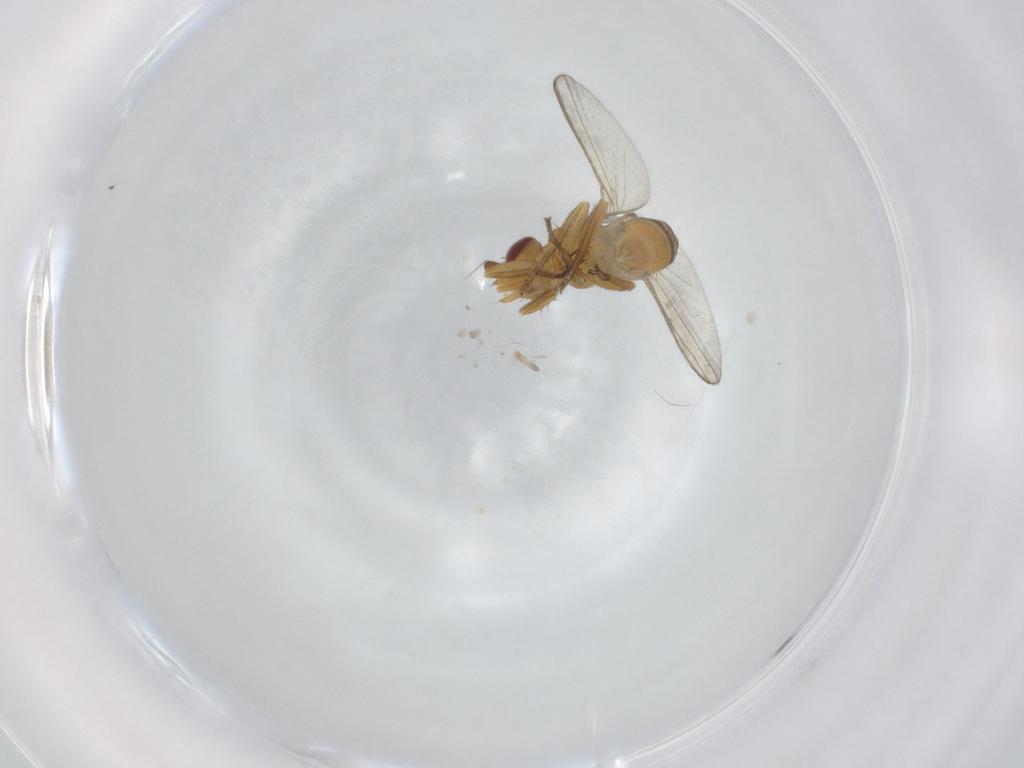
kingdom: Animalia
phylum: Arthropoda
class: Insecta
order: Diptera
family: Milichiidae
